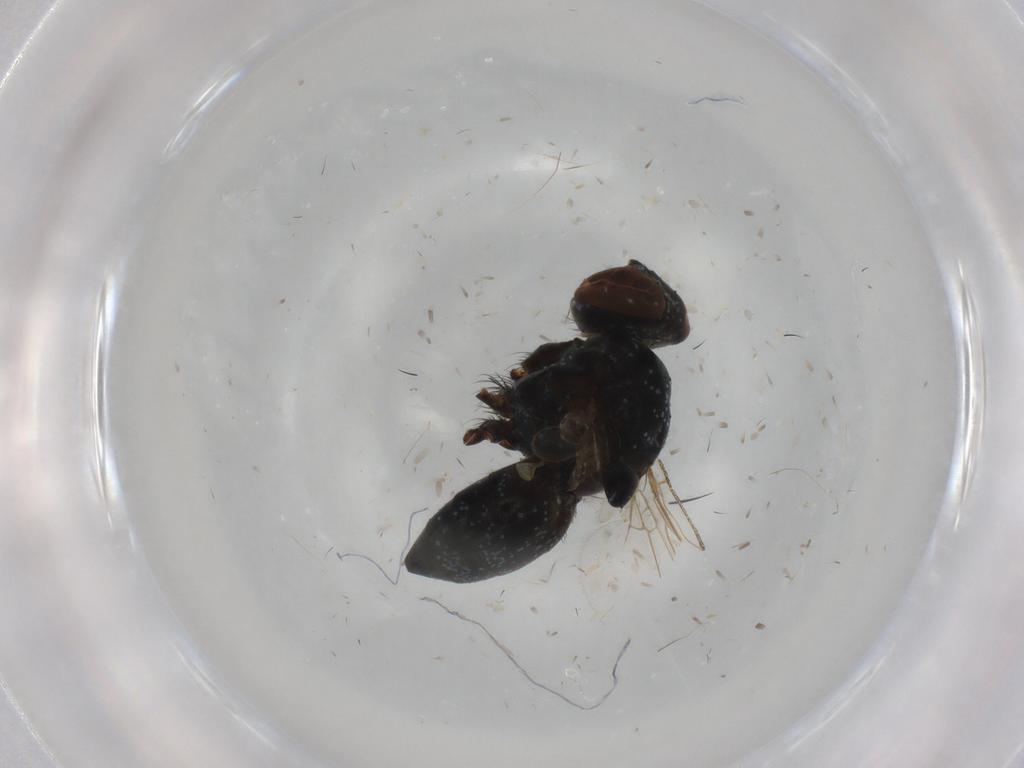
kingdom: Animalia
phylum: Arthropoda
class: Insecta
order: Diptera
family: Muscidae
